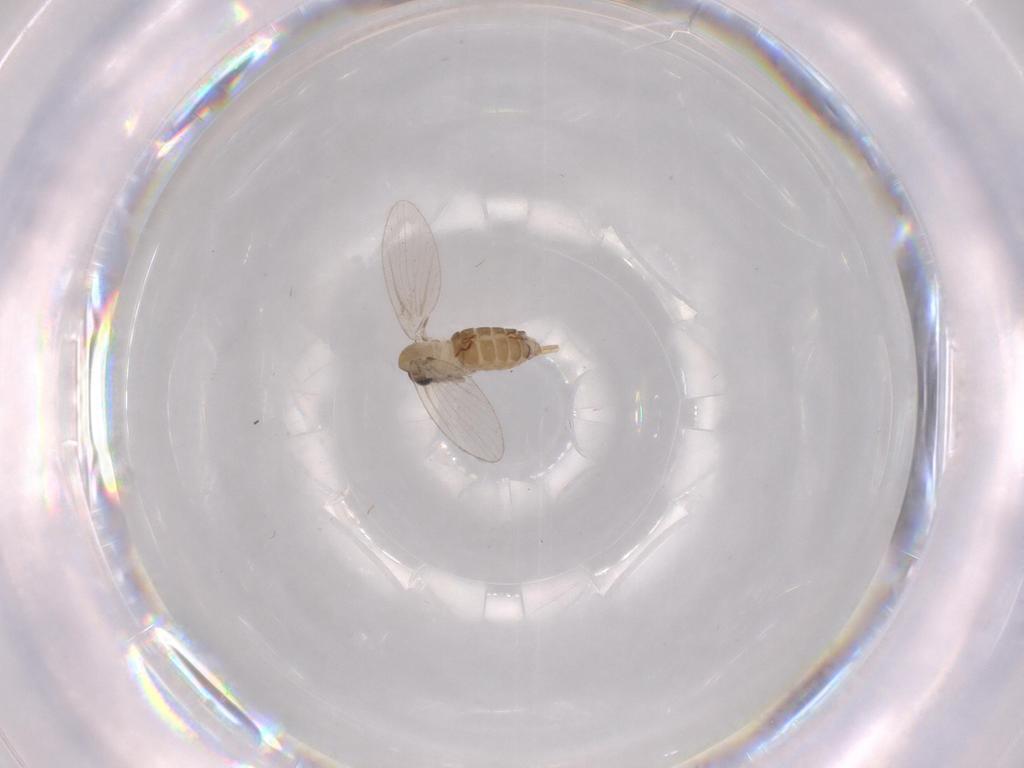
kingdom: Animalia
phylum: Arthropoda
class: Insecta
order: Diptera
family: Psychodidae
